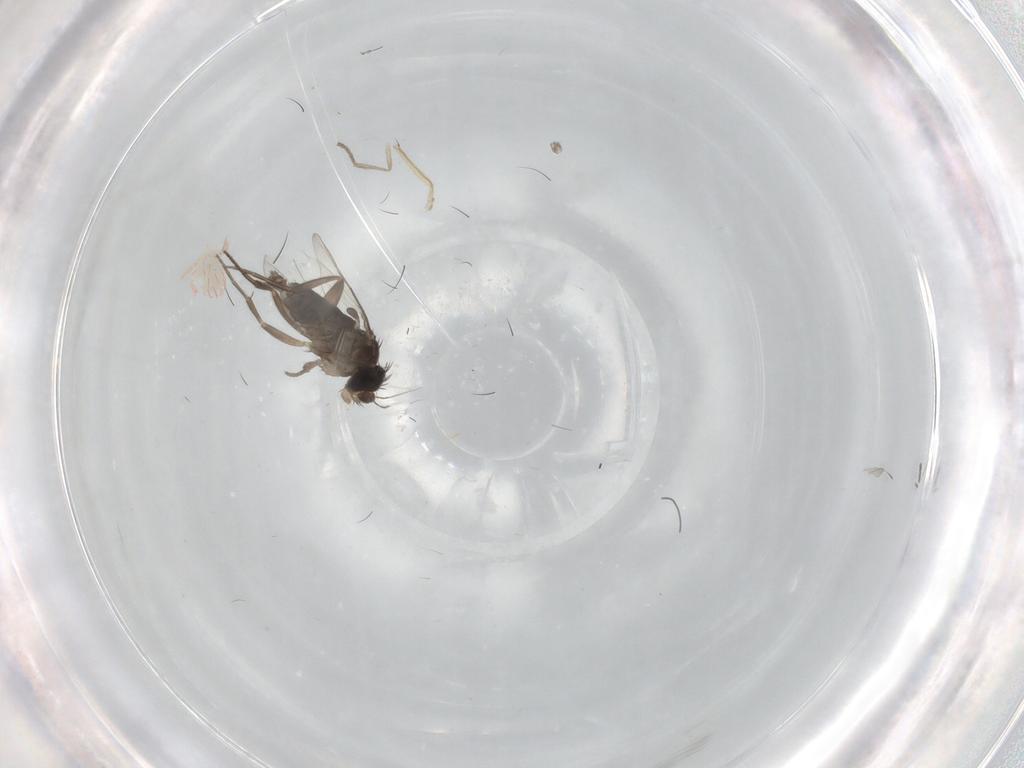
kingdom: Animalia
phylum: Arthropoda
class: Insecta
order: Diptera
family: Phoridae
